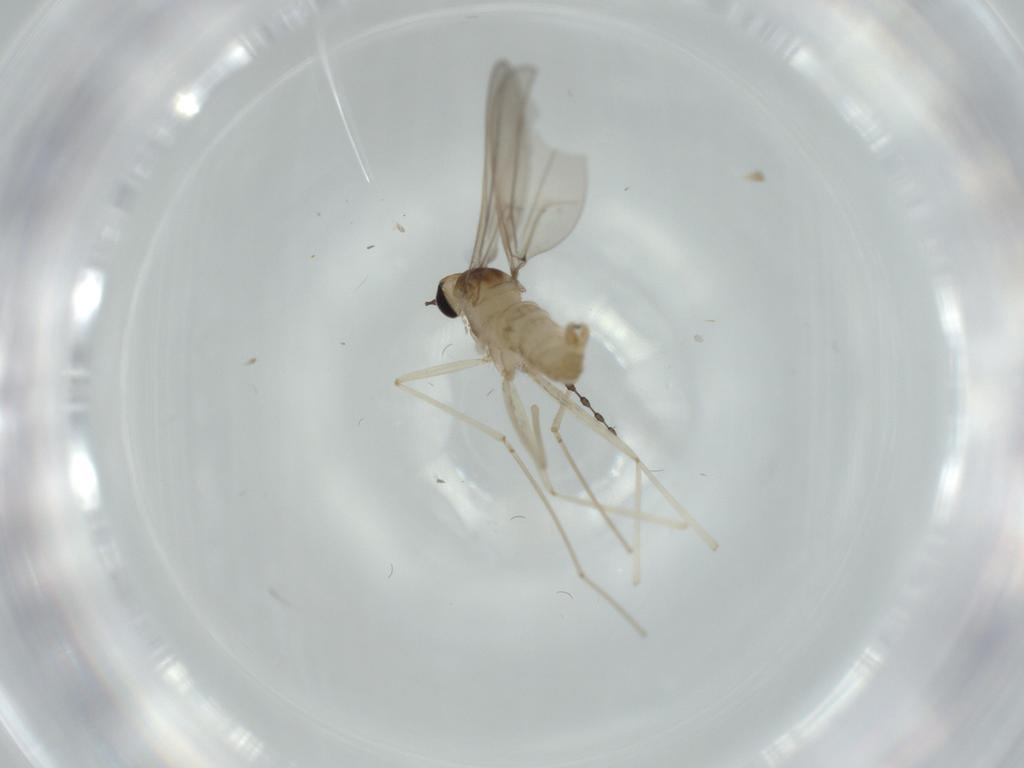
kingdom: Animalia
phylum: Arthropoda
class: Insecta
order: Diptera
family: Cecidomyiidae
